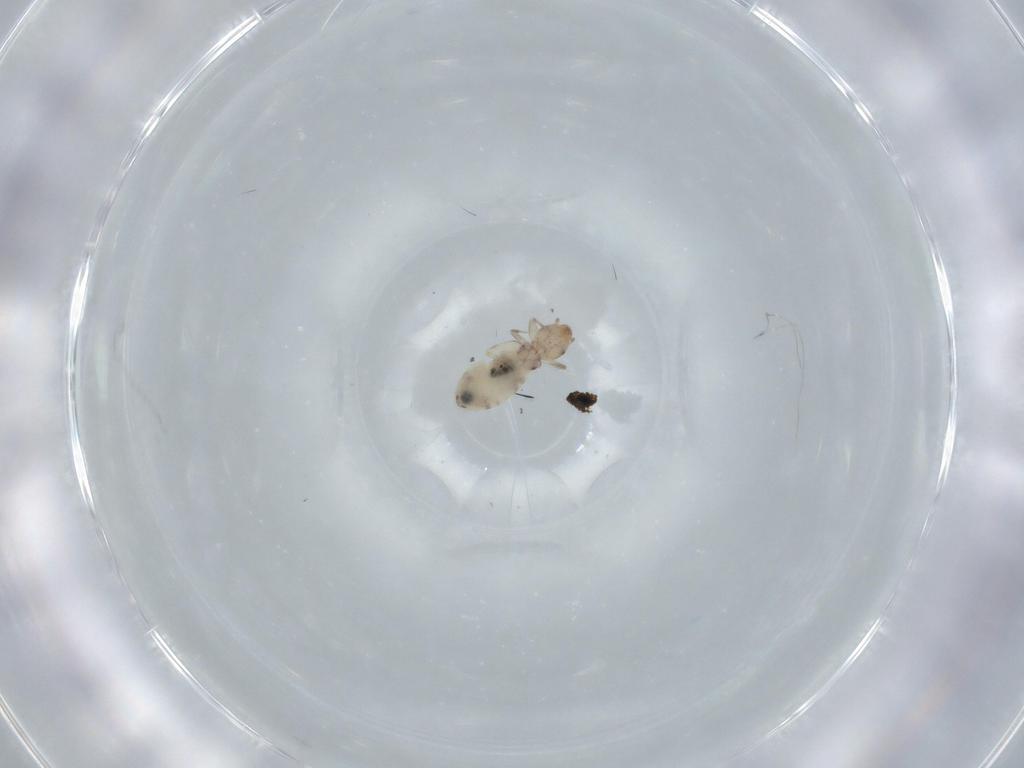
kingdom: Animalia
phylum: Arthropoda
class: Insecta
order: Psocodea
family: Liposcelididae
